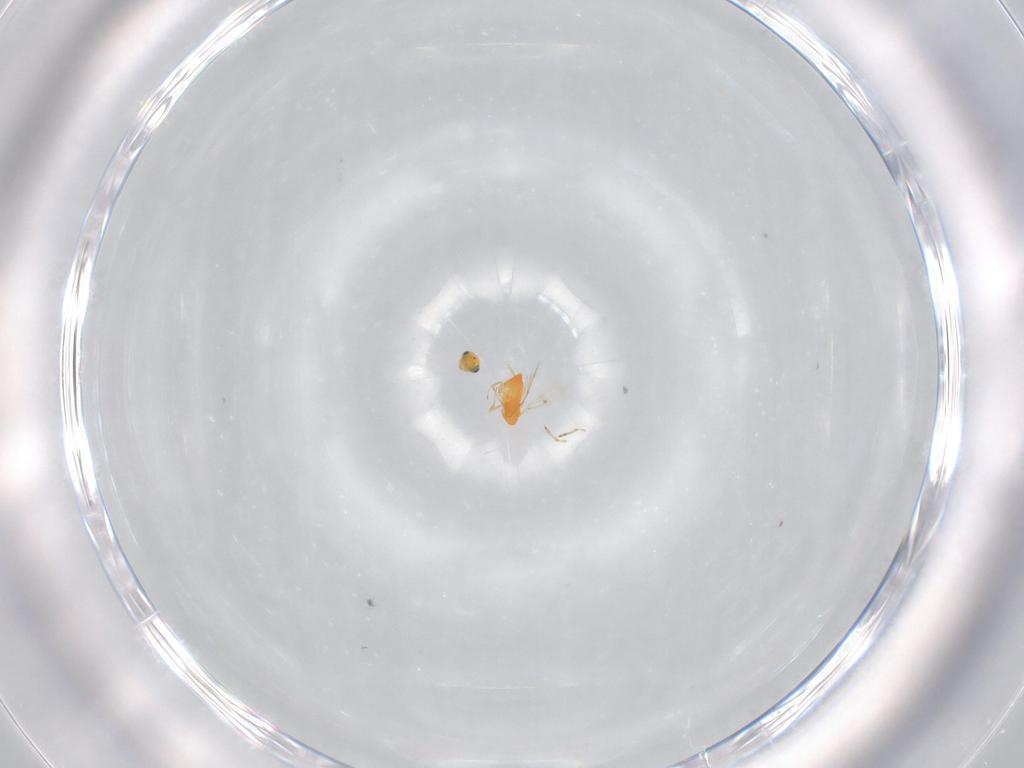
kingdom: Animalia
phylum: Arthropoda
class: Insecta
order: Hymenoptera
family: Trichogrammatidae
